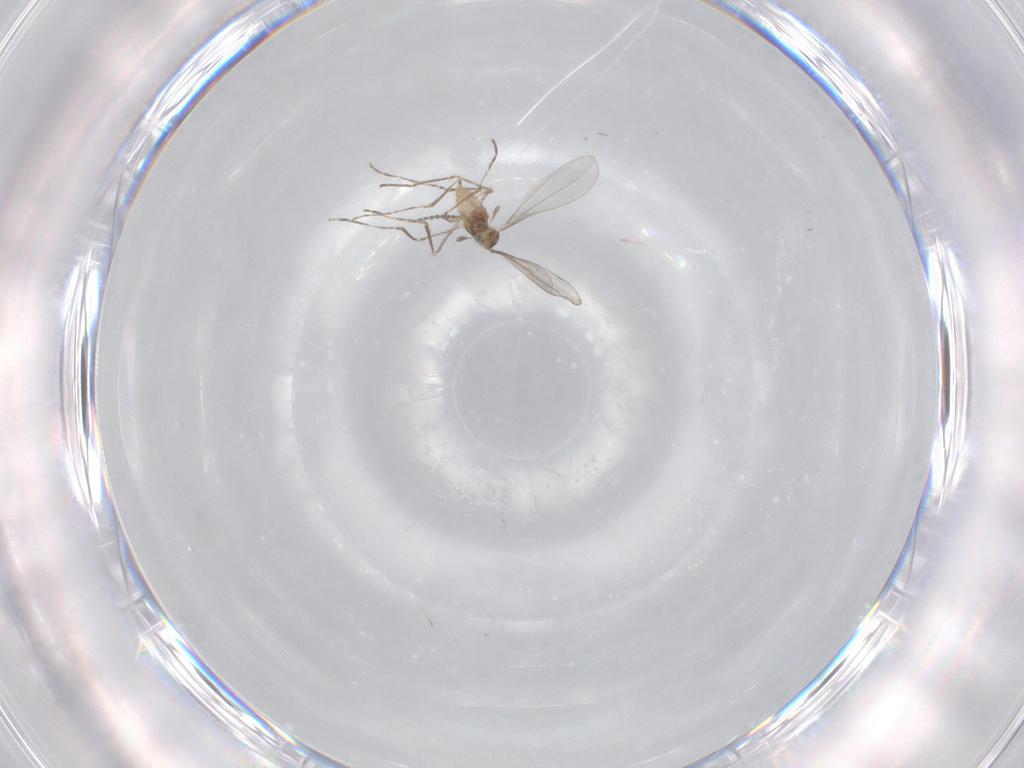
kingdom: Animalia
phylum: Arthropoda
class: Insecta
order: Diptera
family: Cecidomyiidae
